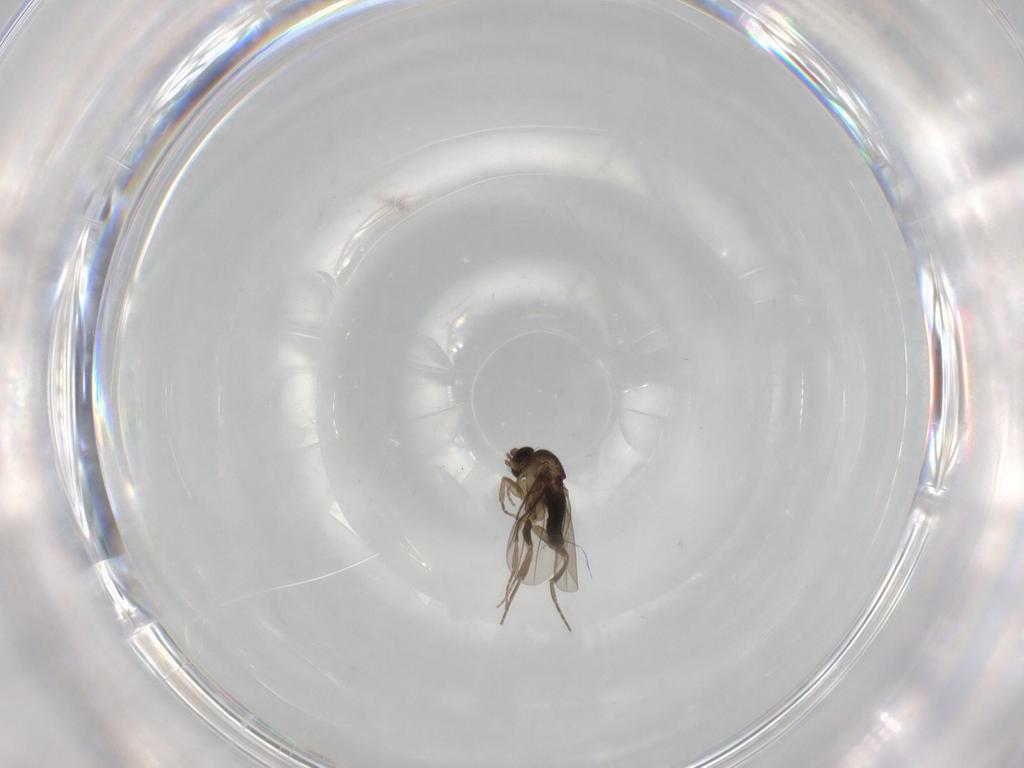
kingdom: Animalia
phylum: Arthropoda
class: Insecta
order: Diptera
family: Phoridae
